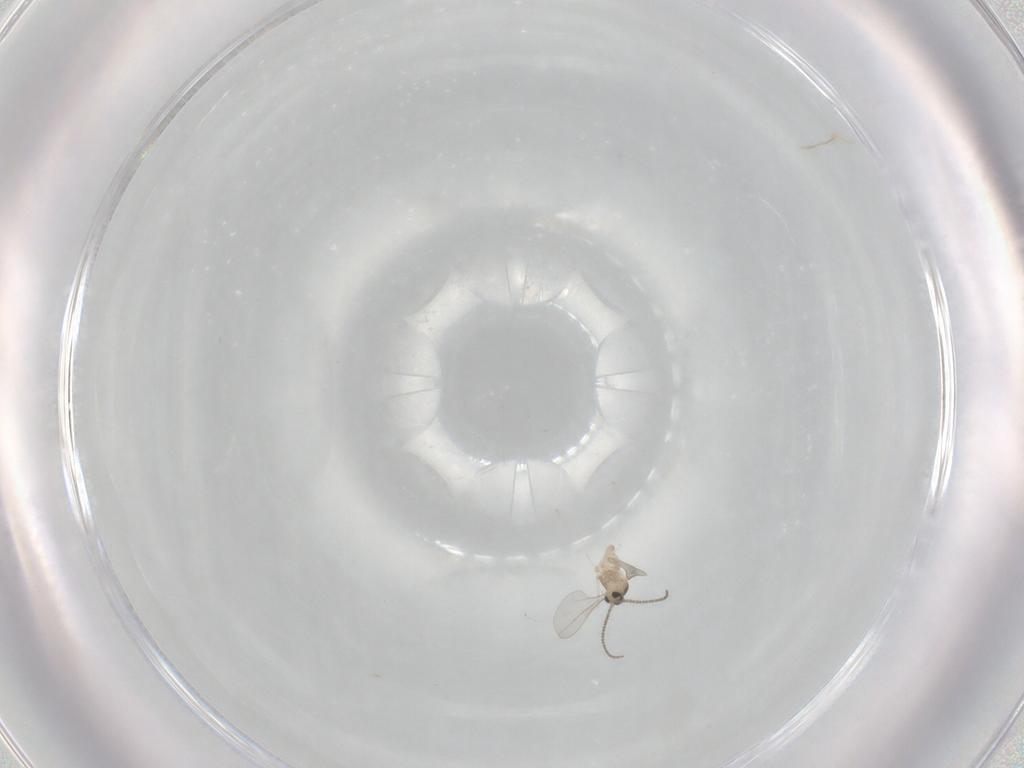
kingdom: Animalia
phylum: Arthropoda
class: Insecta
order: Diptera
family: Cecidomyiidae
